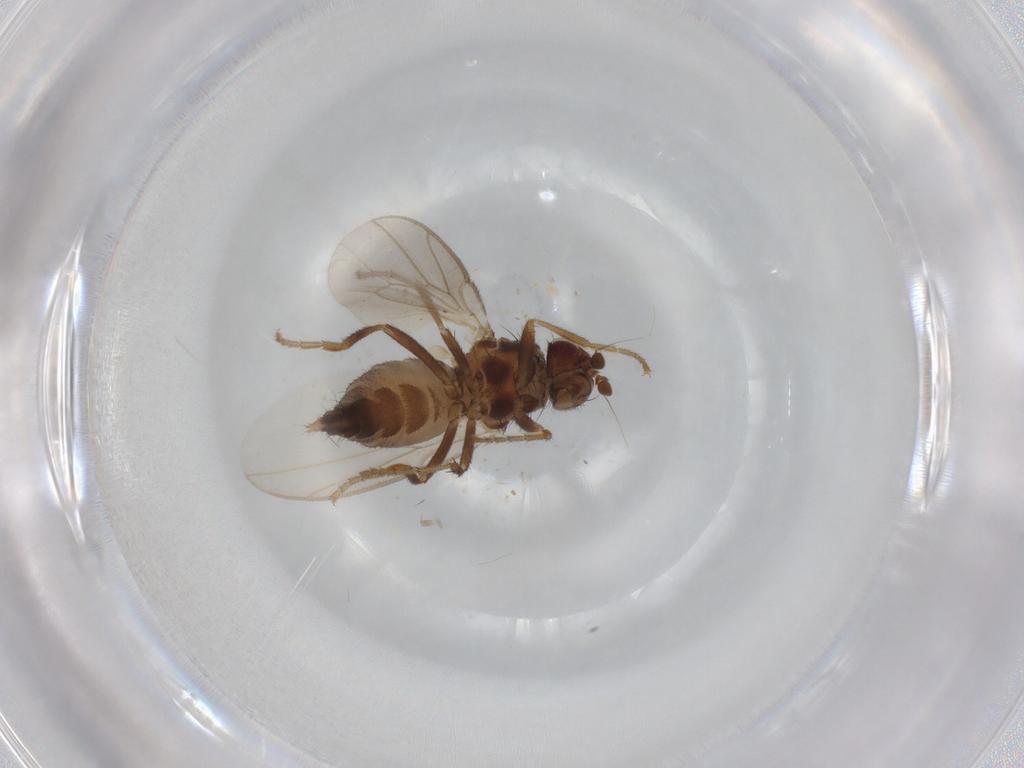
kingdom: Animalia
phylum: Arthropoda
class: Insecta
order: Diptera
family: Sphaeroceridae
